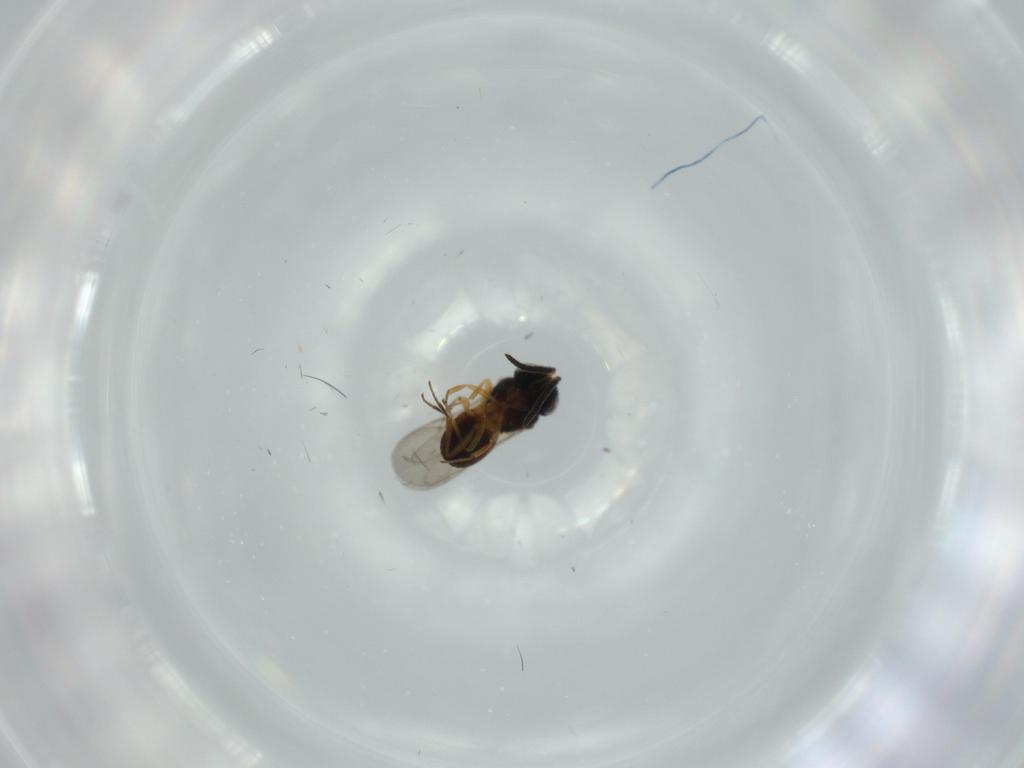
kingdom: Animalia
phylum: Arthropoda
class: Insecta
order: Hymenoptera
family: Scelionidae
